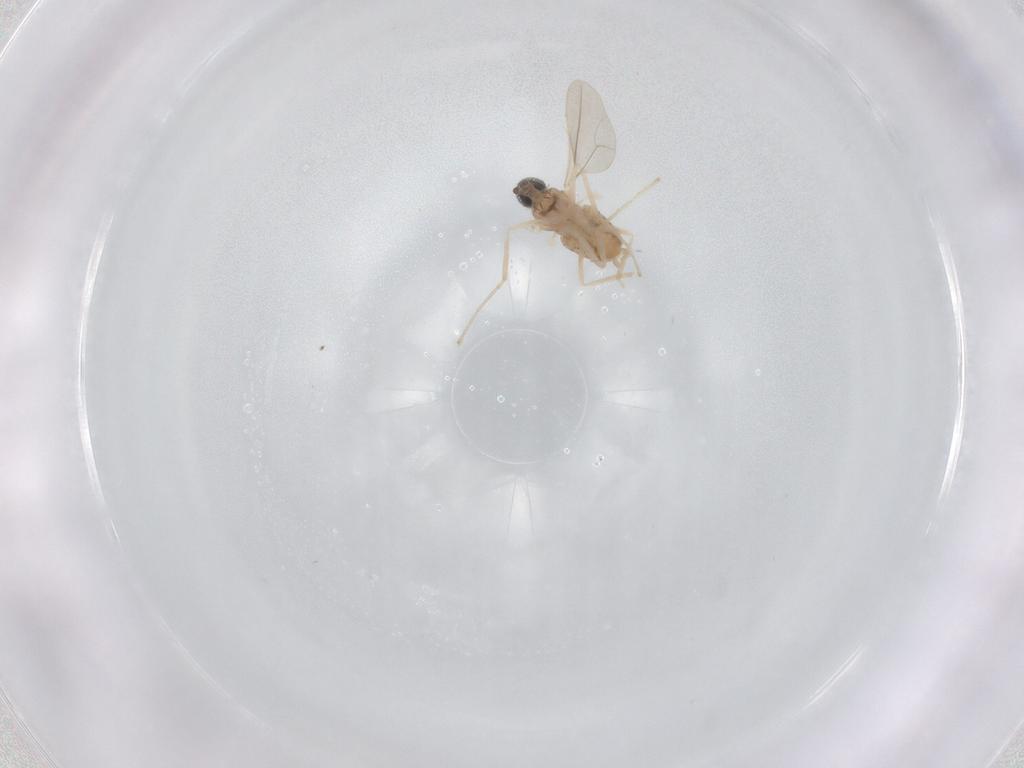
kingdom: Animalia
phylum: Arthropoda
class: Insecta
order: Diptera
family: Cecidomyiidae
